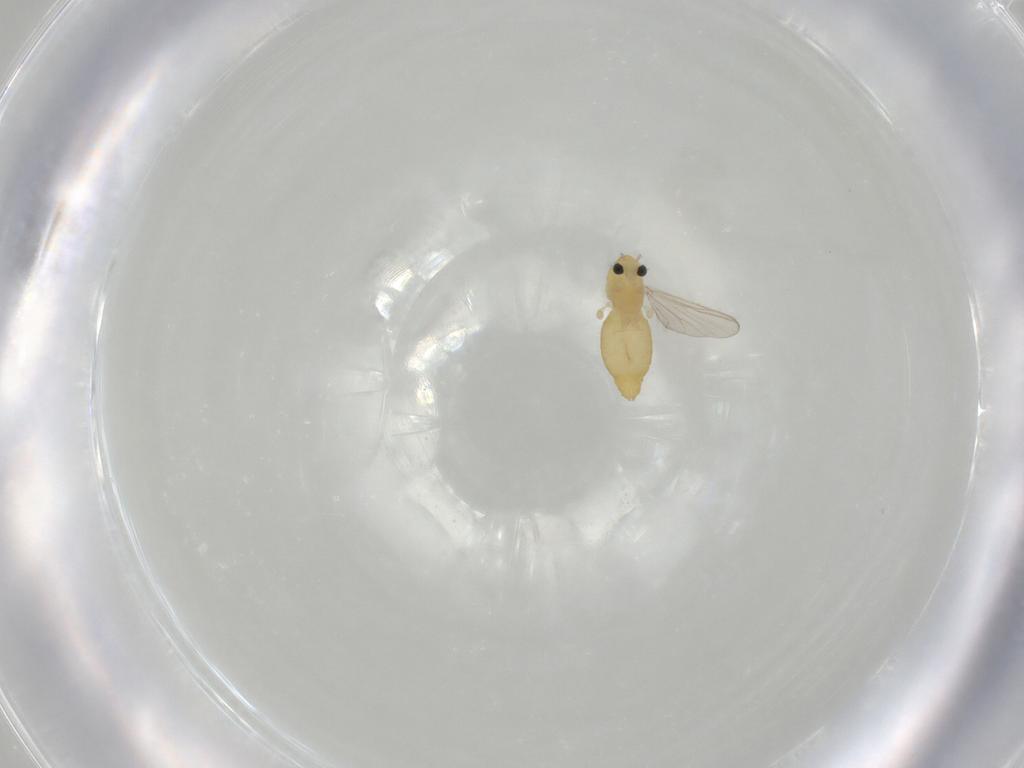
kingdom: Animalia
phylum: Arthropoda
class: Insecta
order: Diptera
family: Chironomidae
